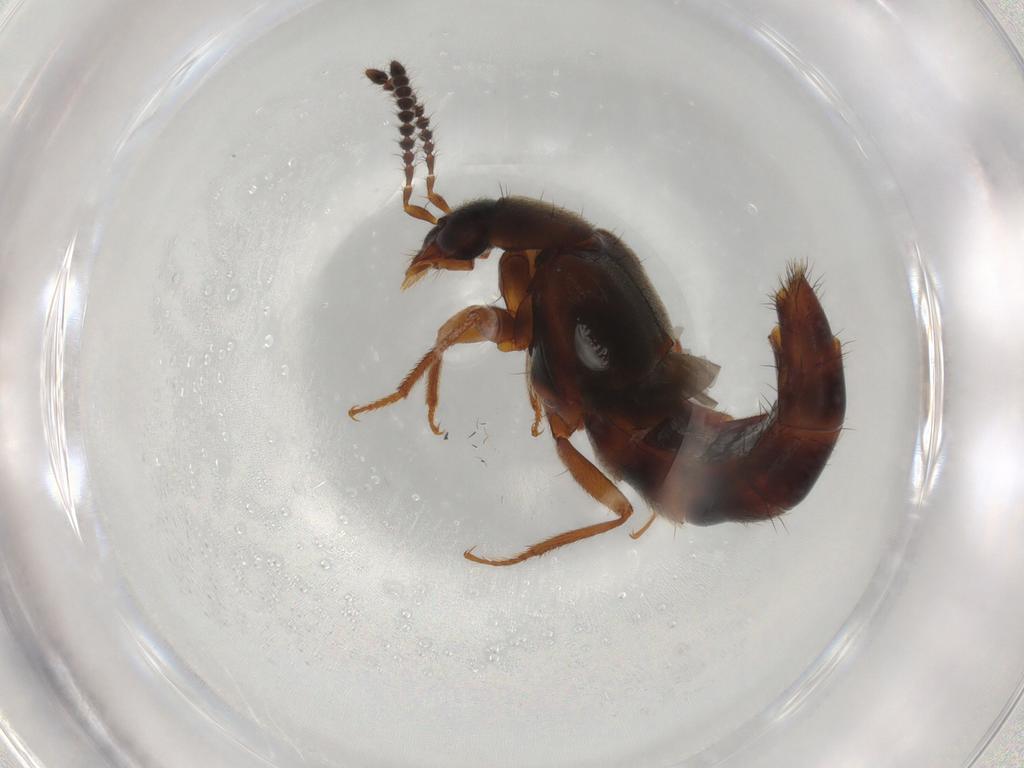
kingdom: Animalia
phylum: Arthropoda
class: Insecta
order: Coleoptera
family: Staphylinidae
